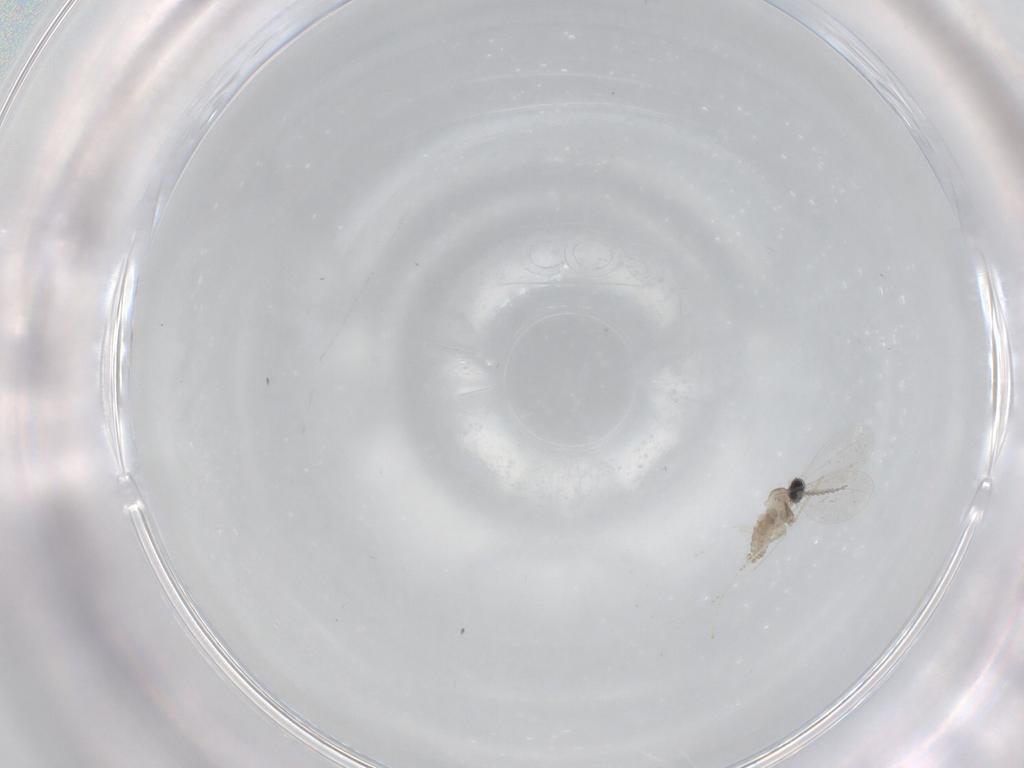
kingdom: Animalia
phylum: Arthropoda
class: Insecta
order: Diptera
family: Cecidomyiidae
